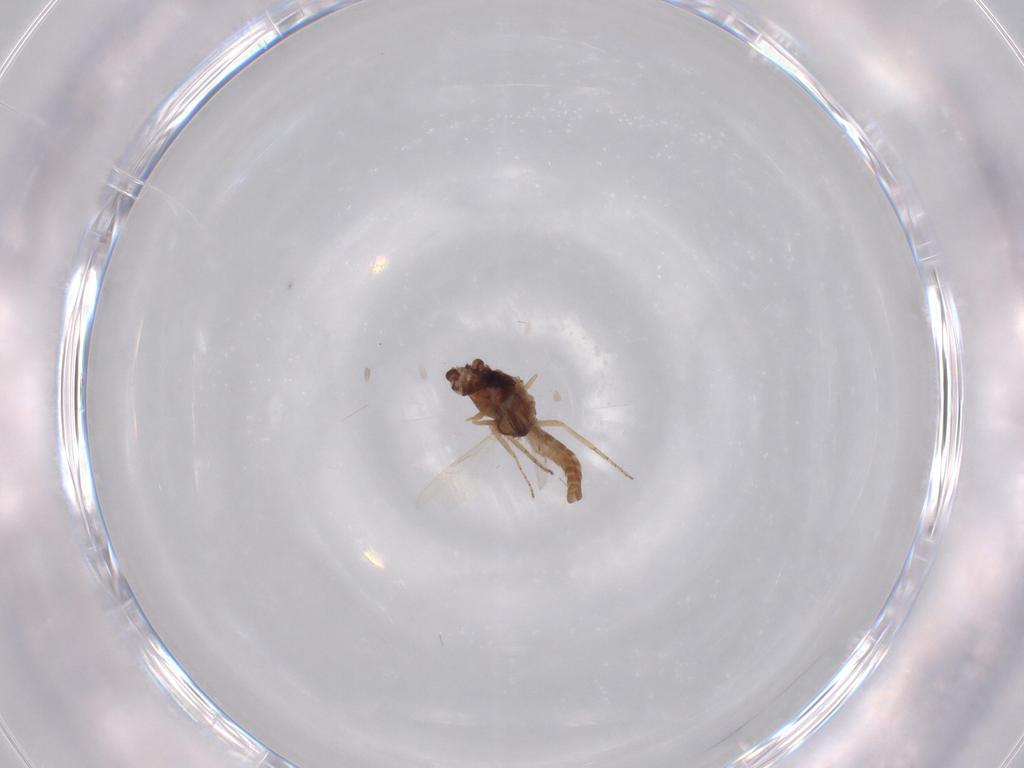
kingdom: Animalia
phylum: Arthropoda
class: Insecta
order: Diptera
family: Ceratopogonidae
